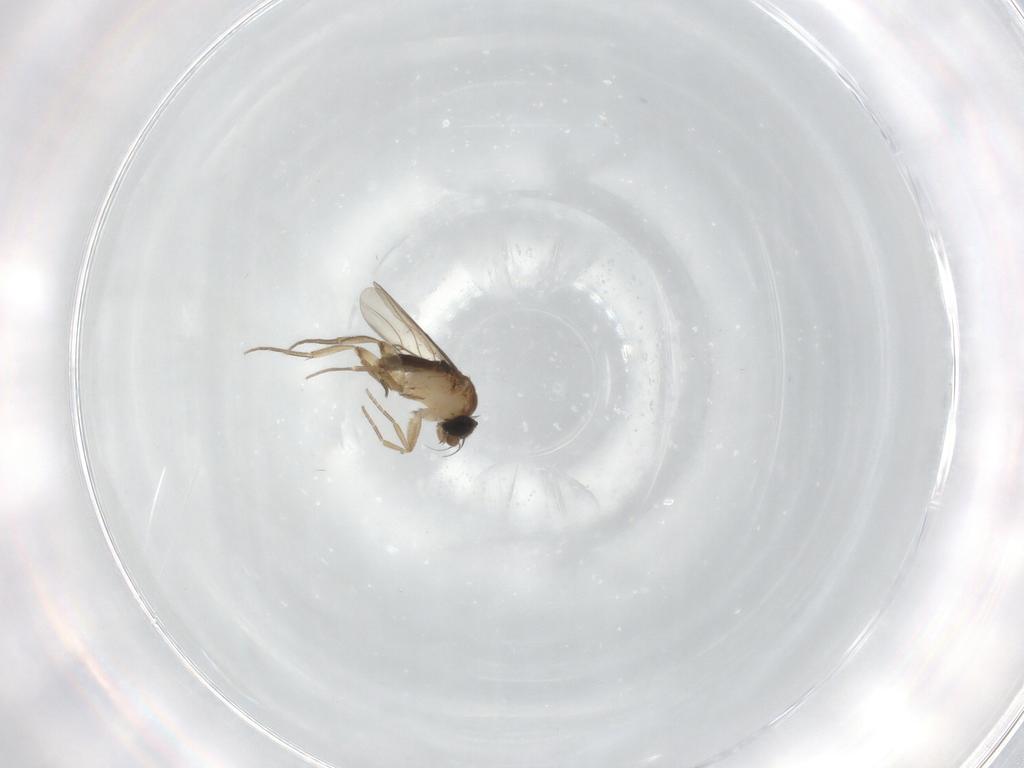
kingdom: Animalia
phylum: Arthropoda
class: Insecta
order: Diptera
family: Phoridae
